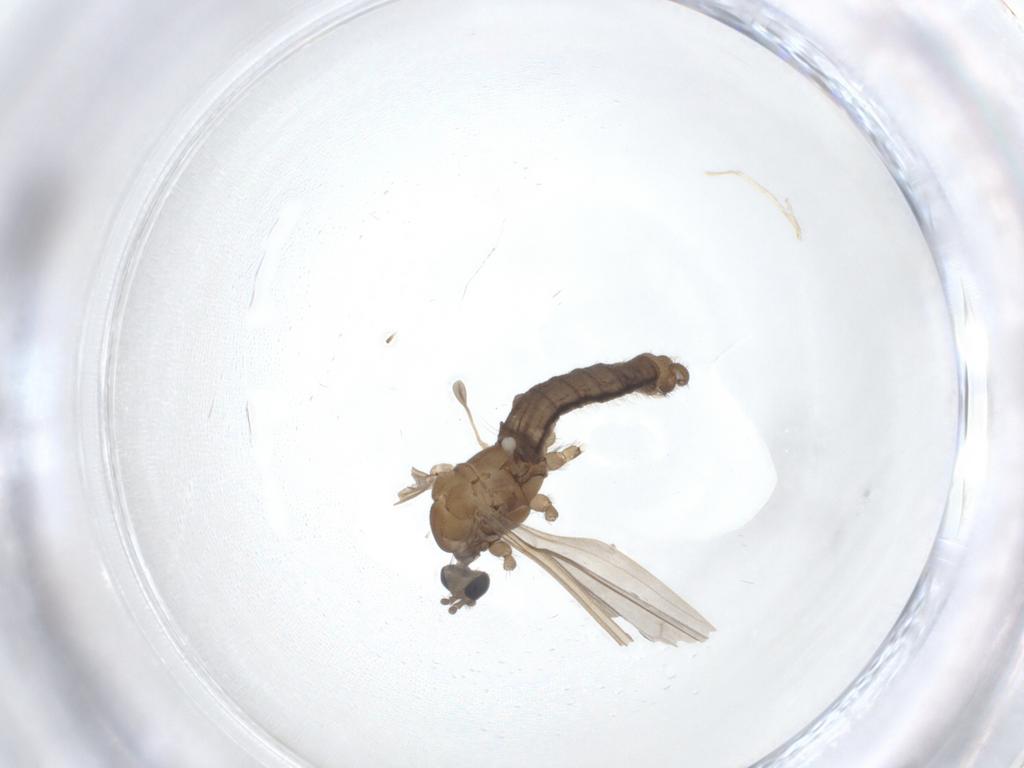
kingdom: Animalia
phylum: Arthropoda
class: Insecta
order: Diptera
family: Limoniidae
